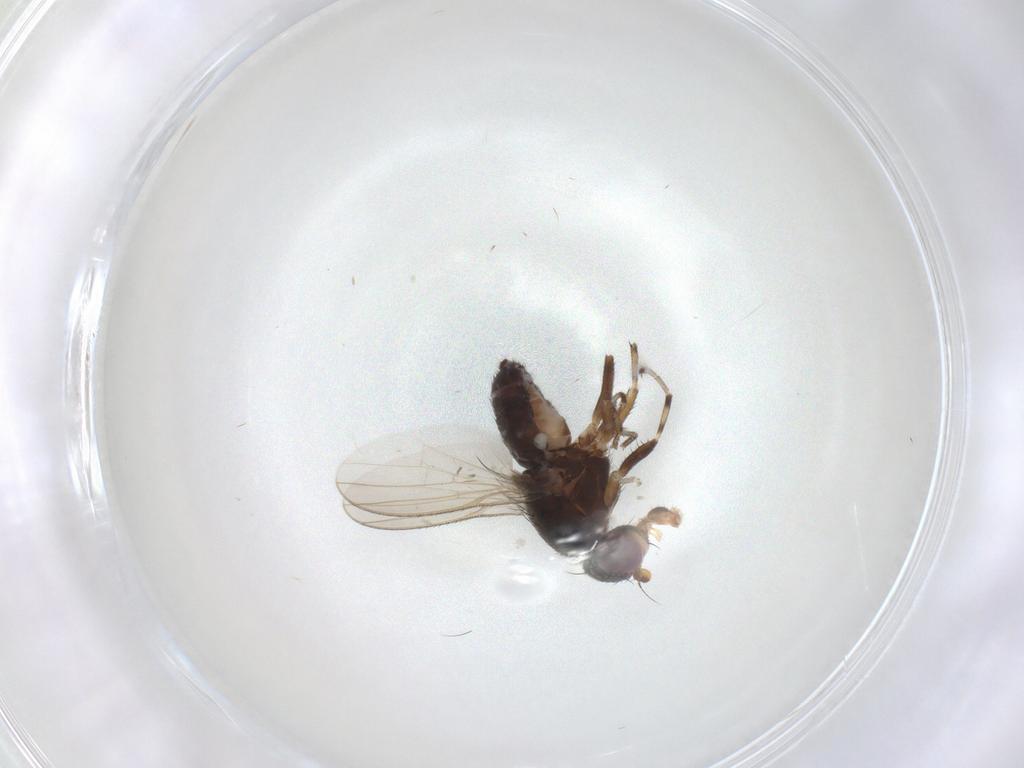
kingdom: Animalia
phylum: Arthropoda
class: Insecta
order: Diptera
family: Heleomyzidae
